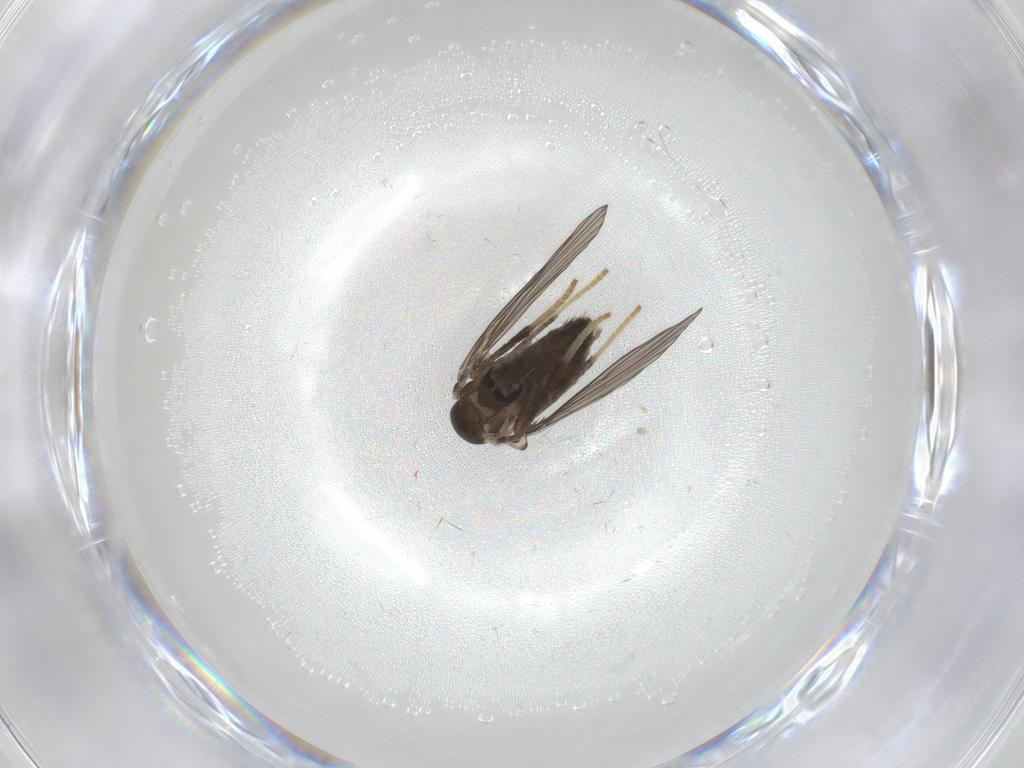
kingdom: Animalia
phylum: Arthropoda
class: Insecta
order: Diptera
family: Psychodidae
